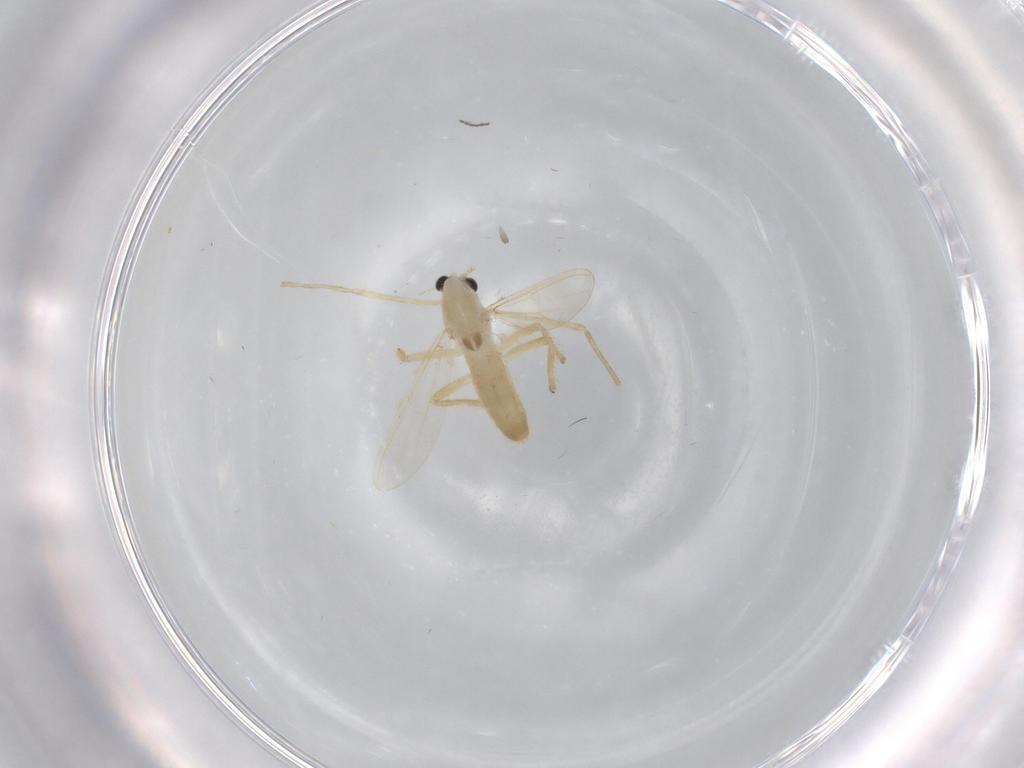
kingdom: Animalia
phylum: Arthropoda
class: Insecta
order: Diptera
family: Chironomidae
